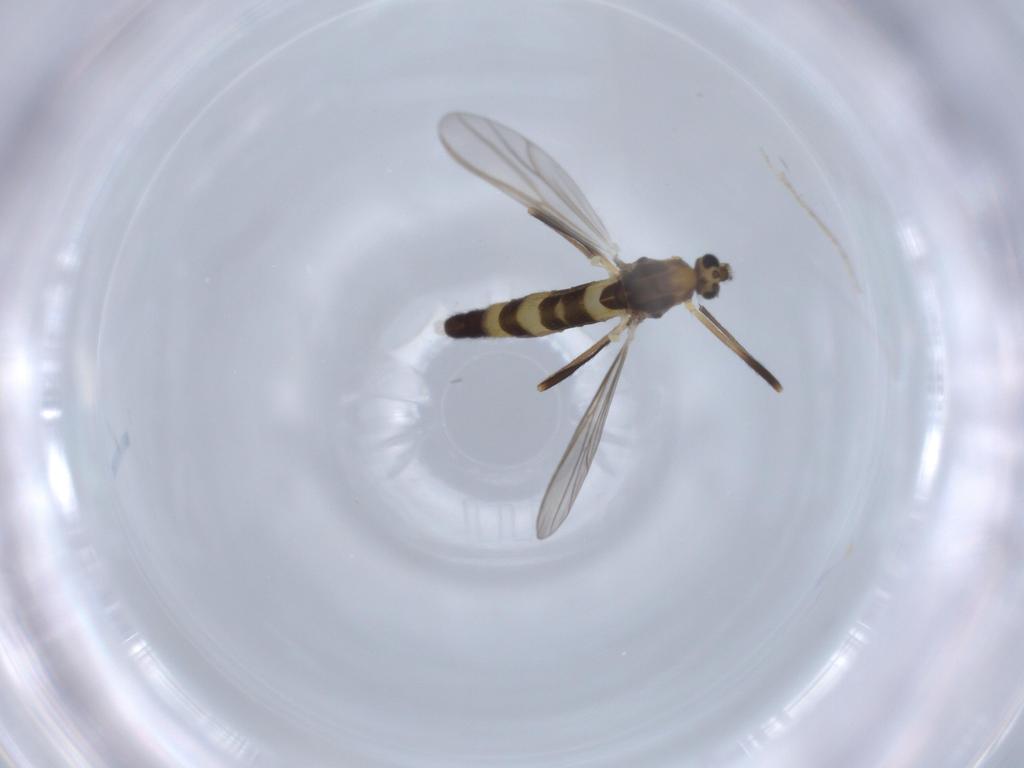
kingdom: Animalia
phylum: Arthropoda
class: Insecta
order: Diptera
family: Chironomidae
